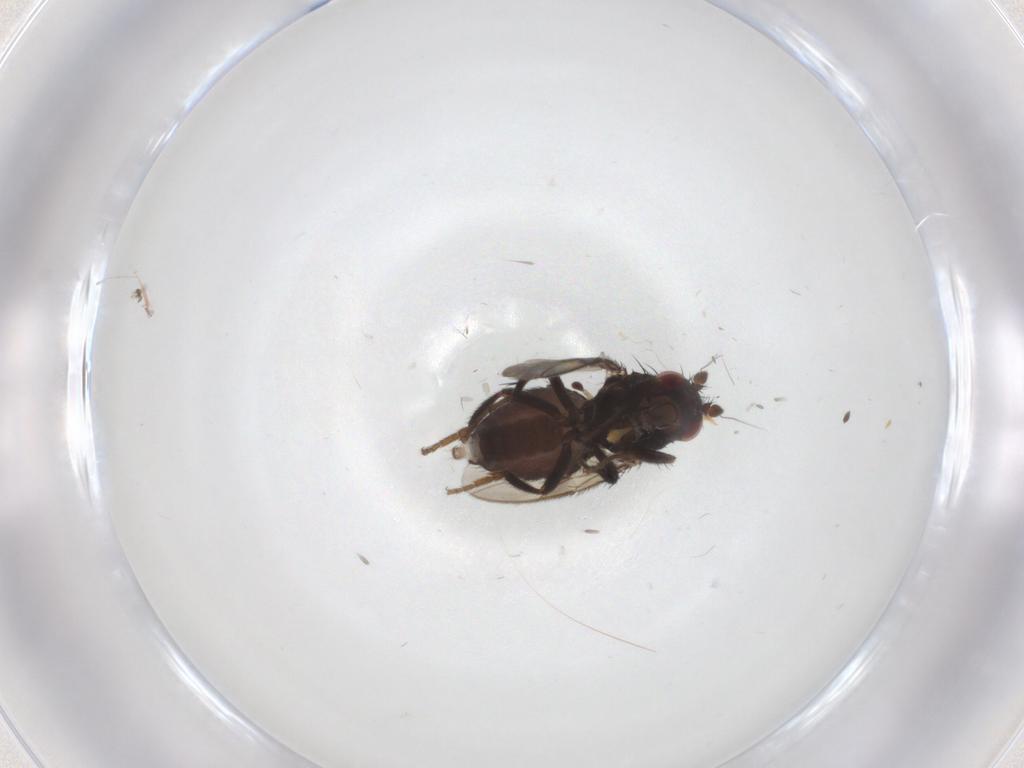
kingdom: Animalia
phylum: Arthropoda
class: Insecta
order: Diptera
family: Sphaeroceridae
